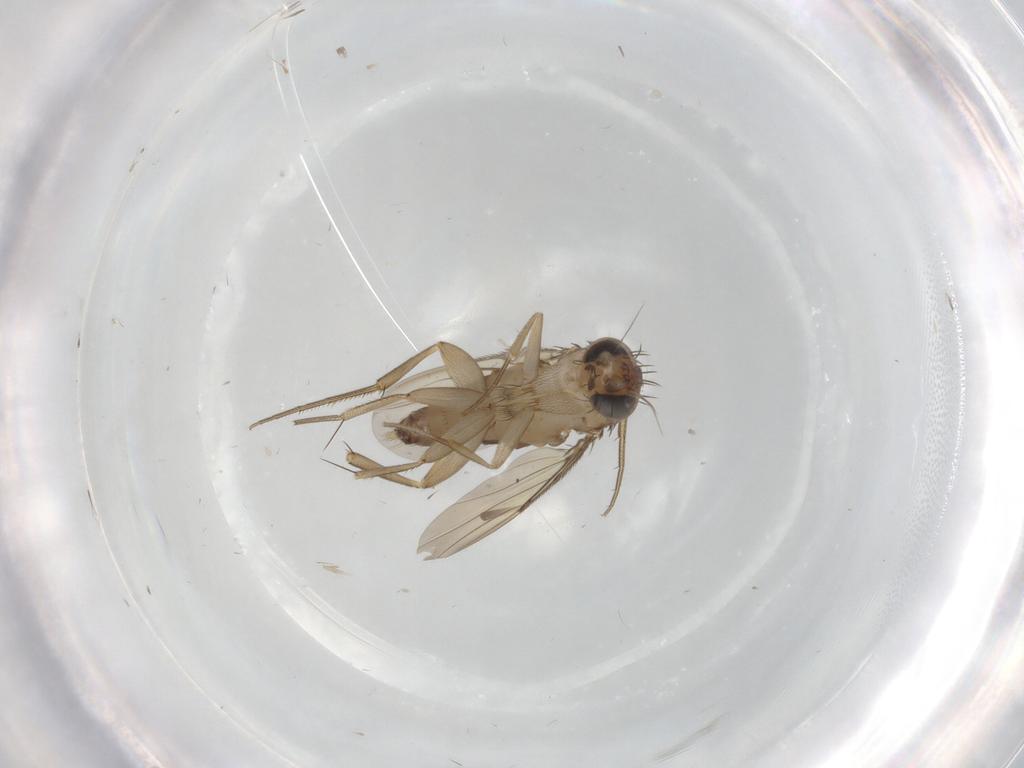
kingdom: Animalia
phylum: Arthropoda
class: Insecta
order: Diptera
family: Phoridae
